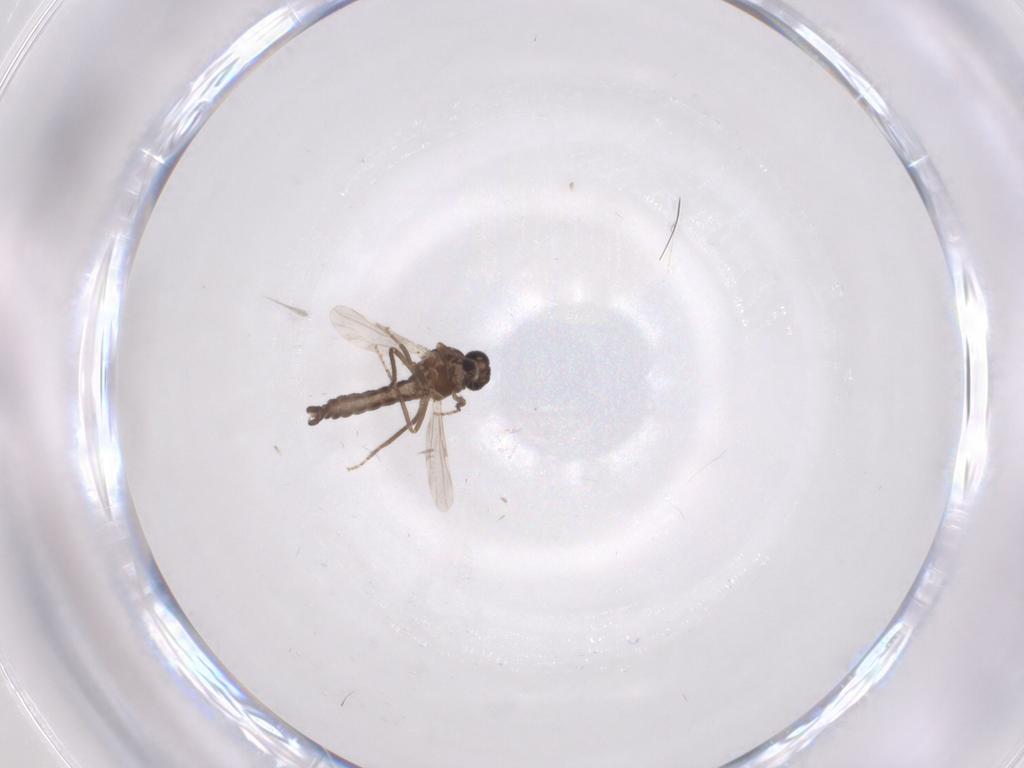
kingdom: Animalia
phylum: Arthropoda
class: Insecta
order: Diptera
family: Ceratopogonidae
